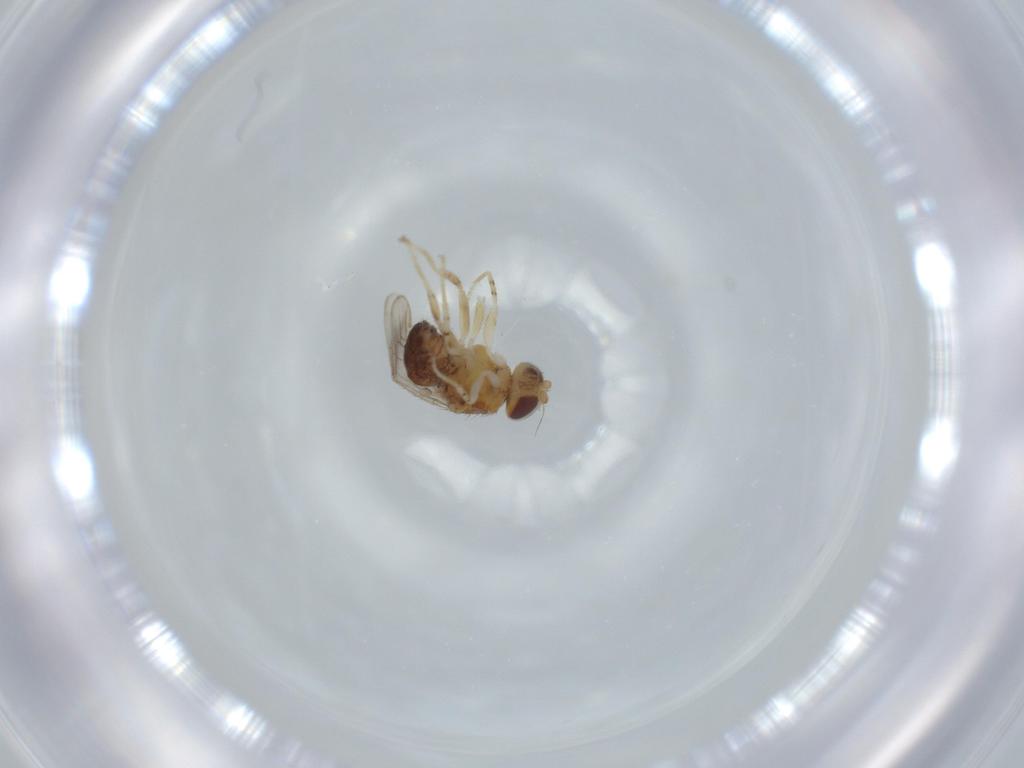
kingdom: Animalia
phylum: Arthropoda
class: Insecta
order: Diptera
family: Chloropidae
